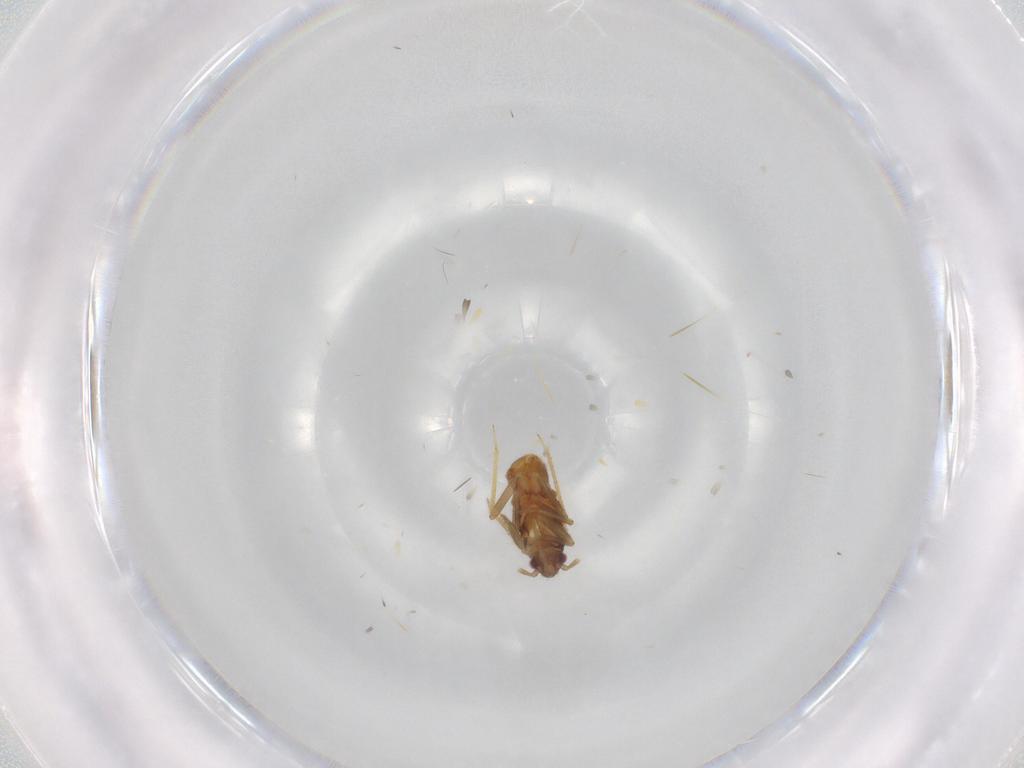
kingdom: Animalia
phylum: Arthropoda
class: Insecta
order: Hemiptera
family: Ceratocombidae
